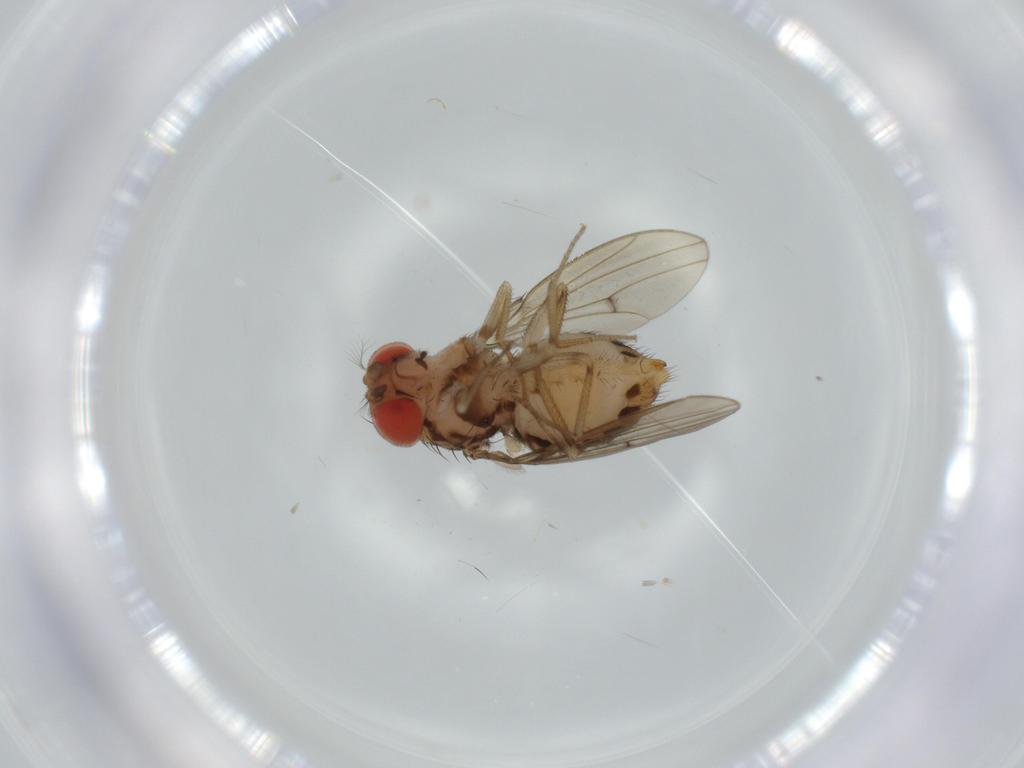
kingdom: Animalia
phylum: Arthropoda
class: Insecta
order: Diptera
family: Drosophilidae
